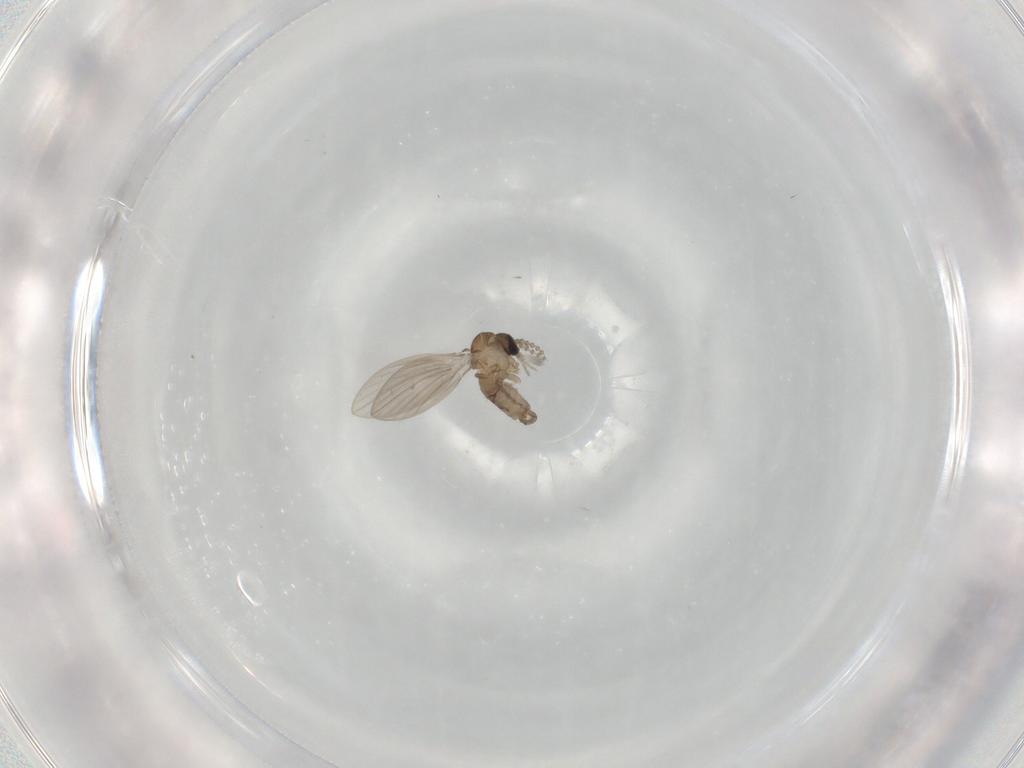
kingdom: Animalia
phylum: Arthropoda
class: Insecta
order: Diptera
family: Psychodidae
